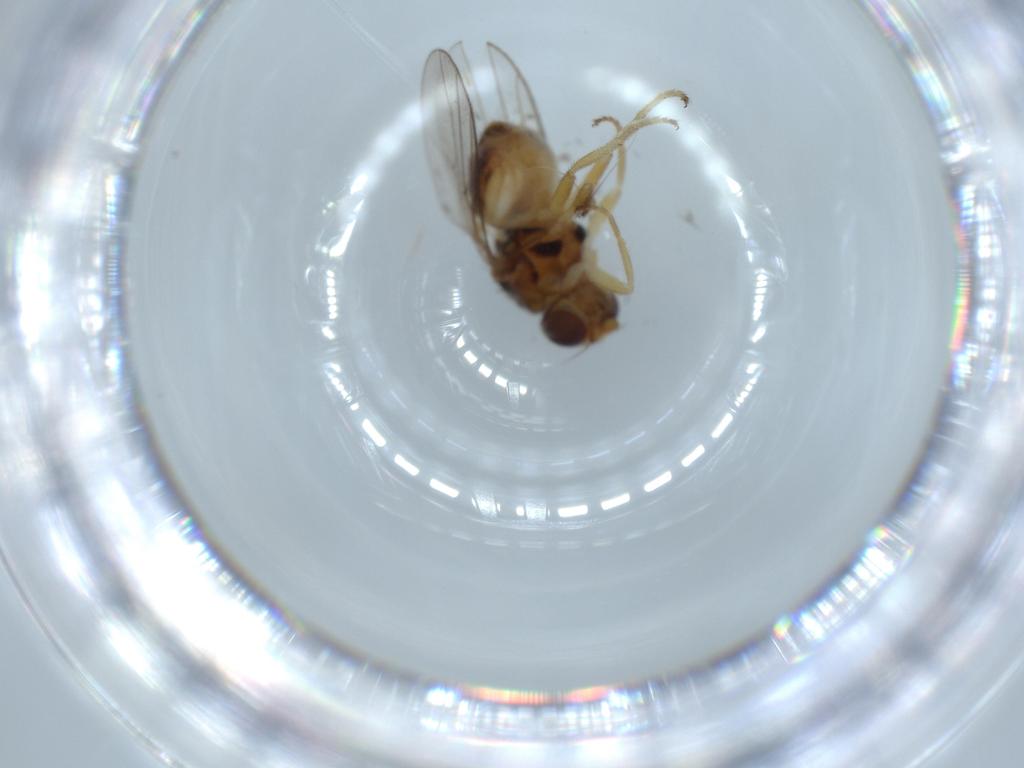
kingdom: Animalia
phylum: Arthropoda
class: Insecta
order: Diptera
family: Chloropidae
